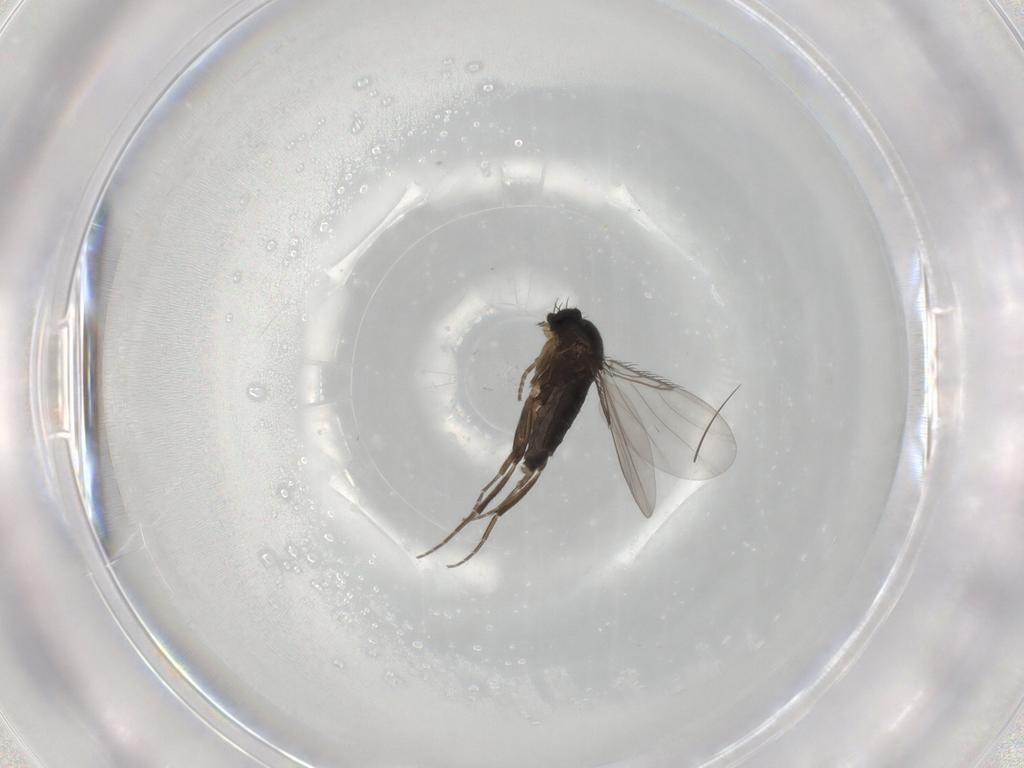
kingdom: Animalia
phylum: Arthropoda
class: Insecta
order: Diptera
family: Phoridae
